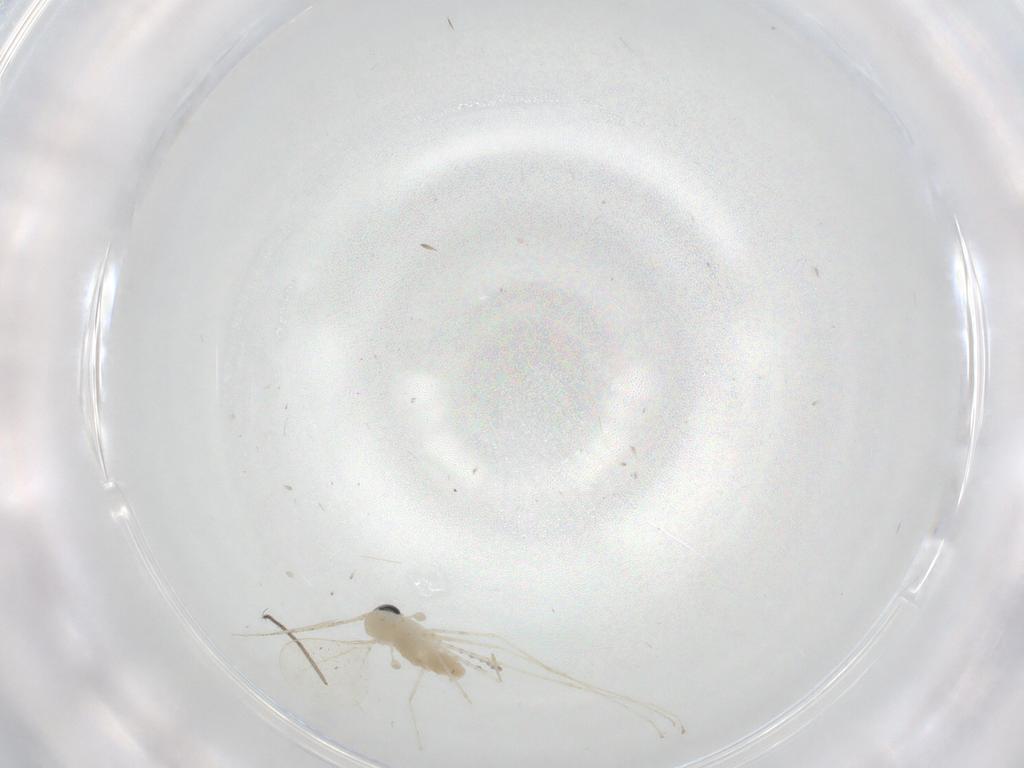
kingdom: Animalia
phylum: Arthropoda
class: Insecta
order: Diptera
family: Cecidomyiidae
